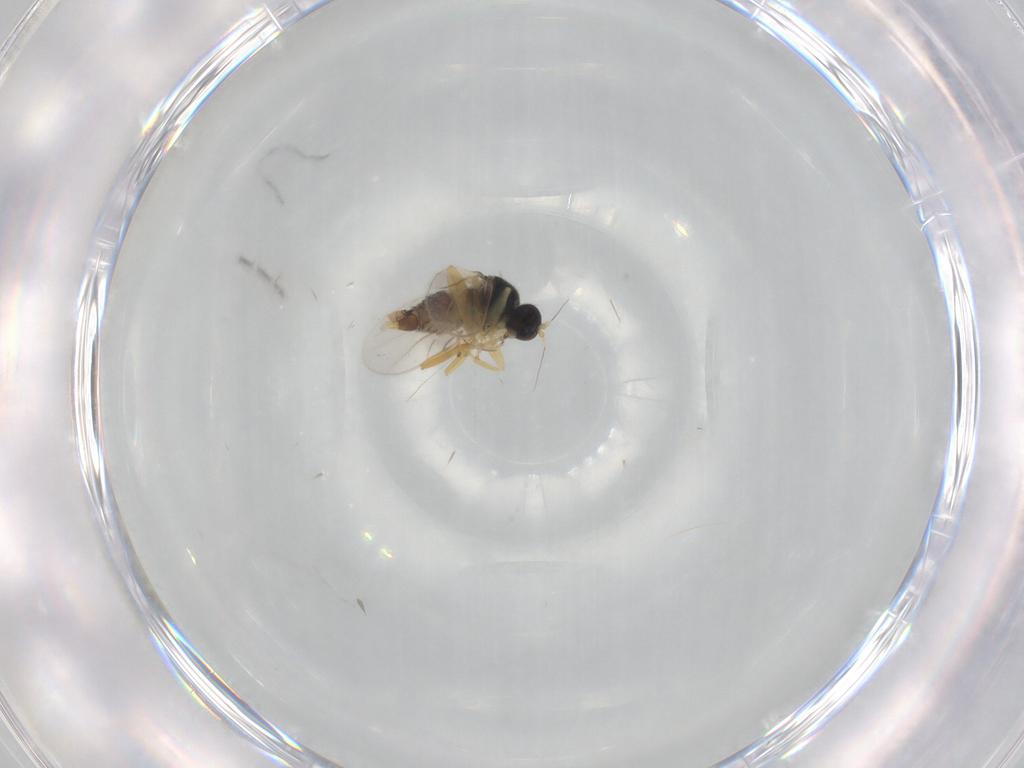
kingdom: Animalia
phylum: Arthropoda
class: Insecta
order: Diptera
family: Hybotidae
